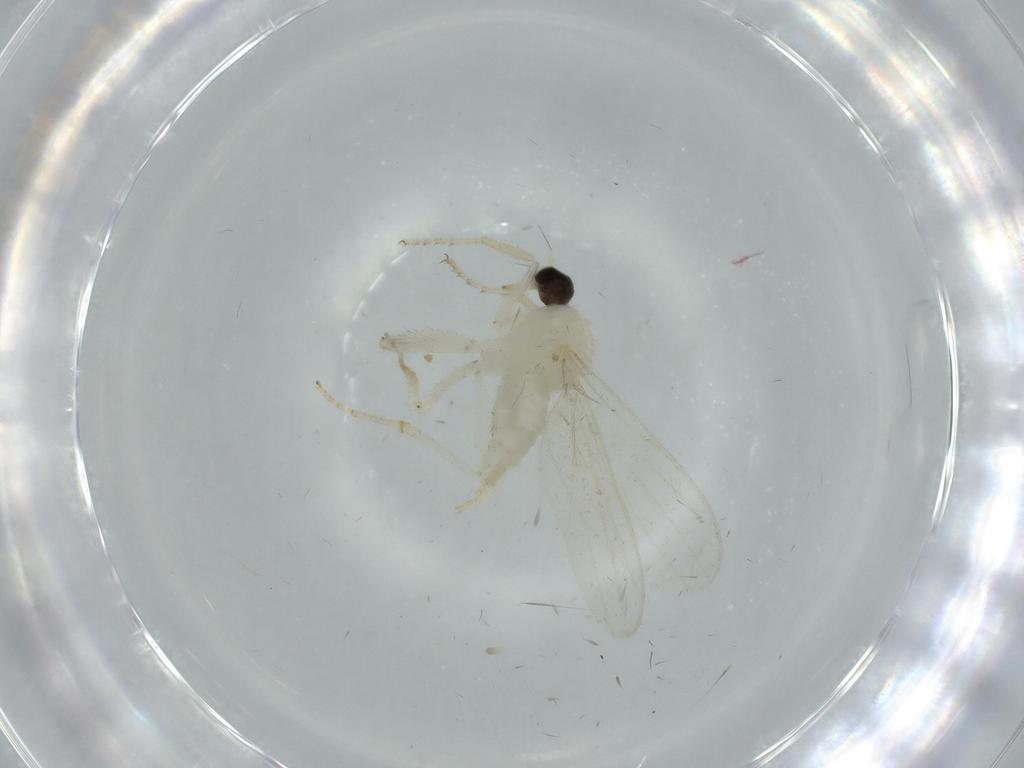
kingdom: Animalia
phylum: Arthropoda
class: Insecta
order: Diptera
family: Hybotidae
